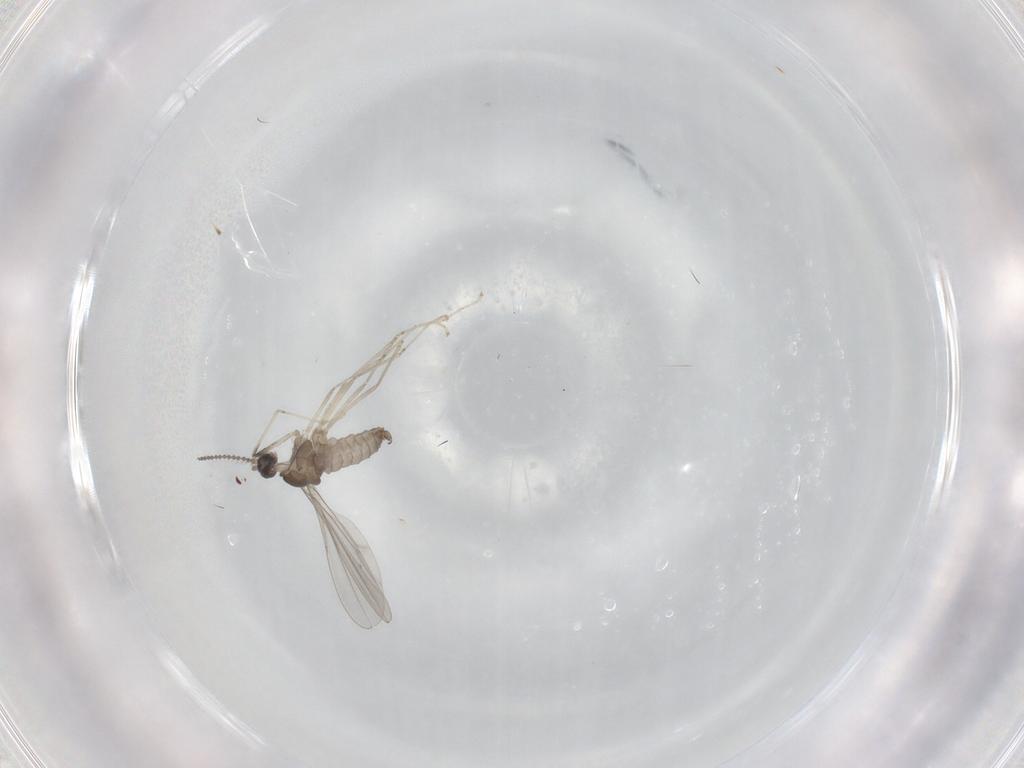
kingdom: Animalia
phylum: Arthropoda
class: Insecta
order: Diptera
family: Cecidomyiidae
